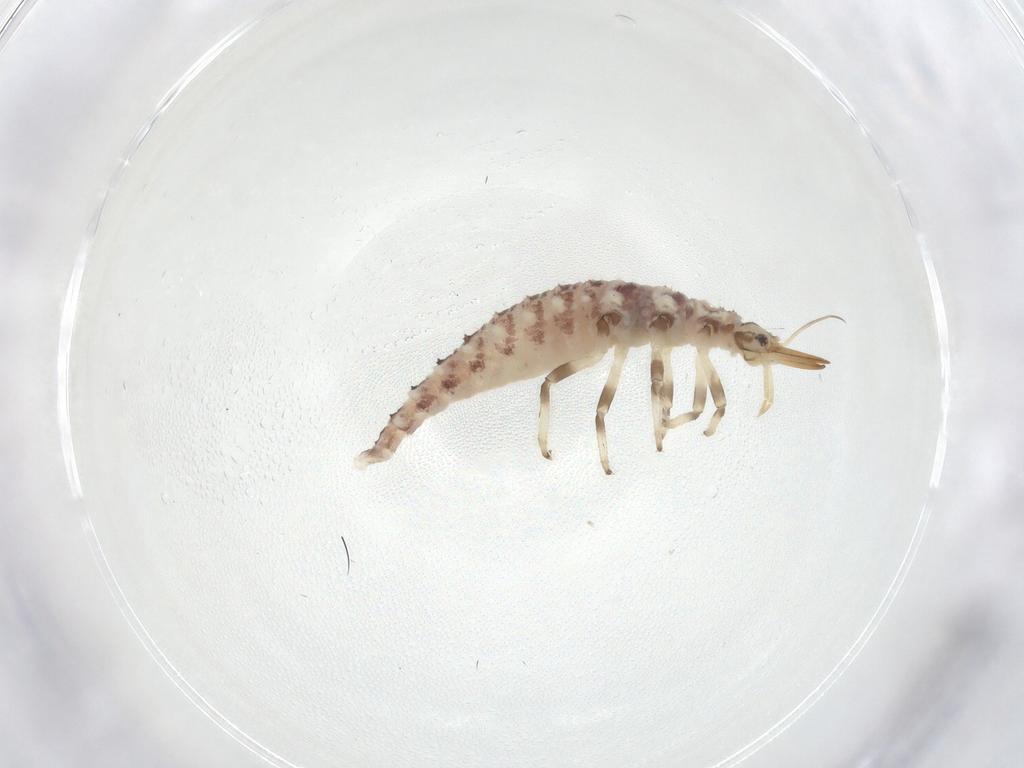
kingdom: Animalia
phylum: Arthropoda
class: Insecta
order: Neuroptera
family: Chrysopidae
